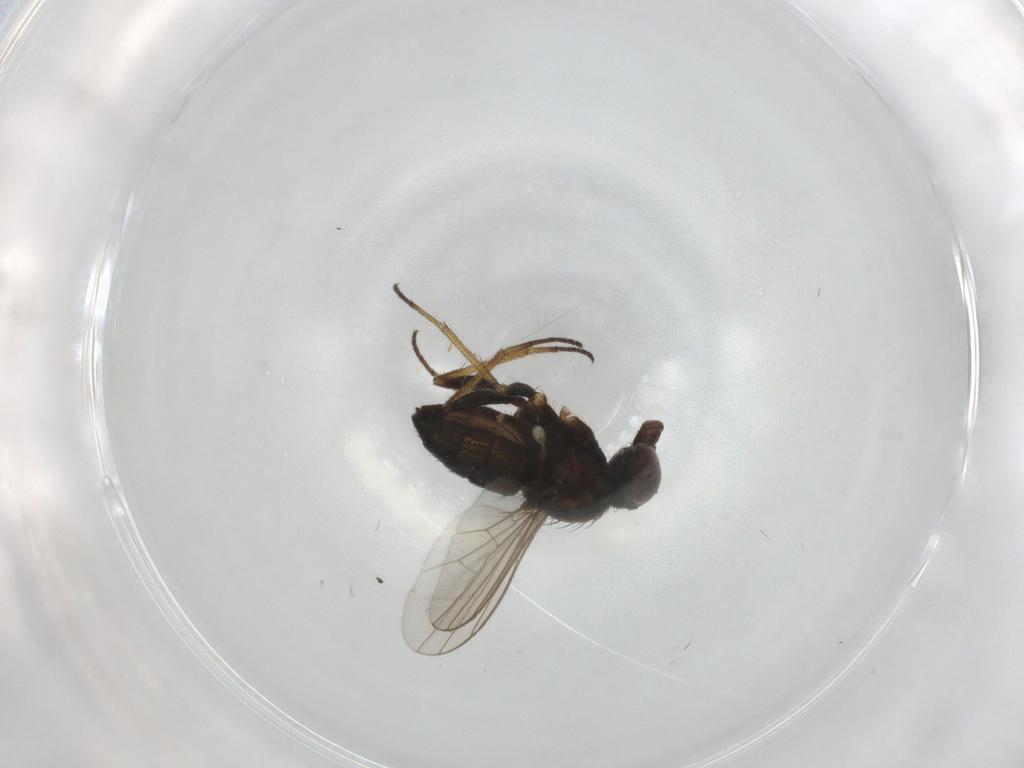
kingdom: Animalia
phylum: Arthropoda
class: Insecta
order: Diptera
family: Dolichopodidae
